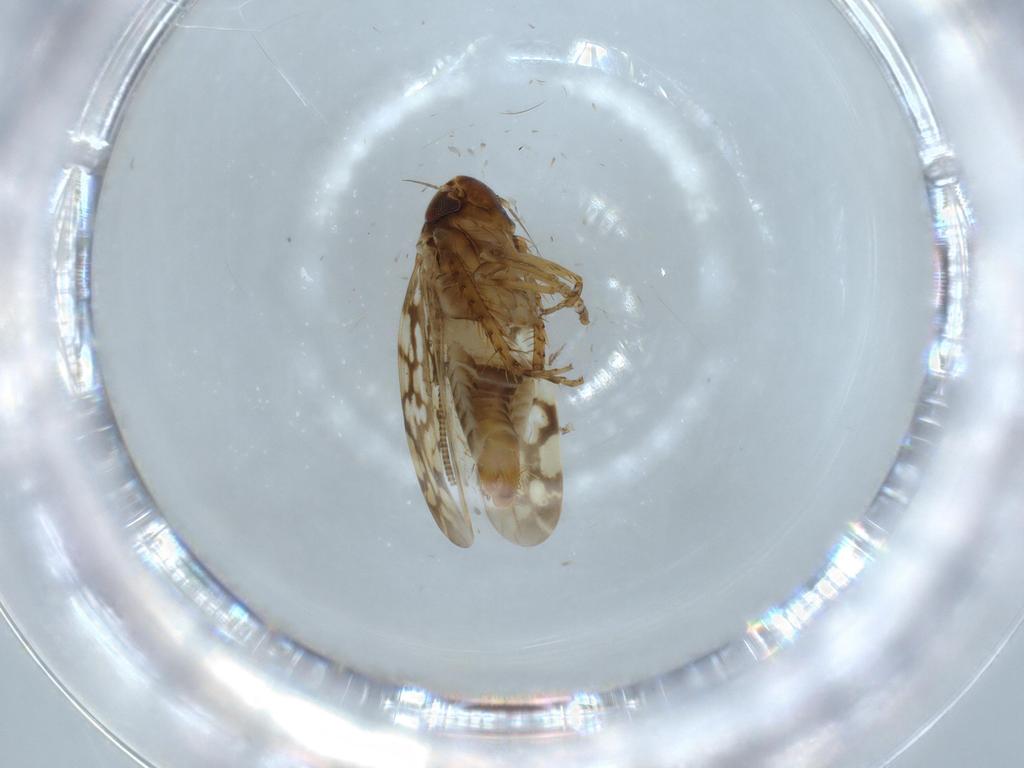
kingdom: Animalia
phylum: Arthropoda
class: Insecta
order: Hemiptera
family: Cicadellidae
